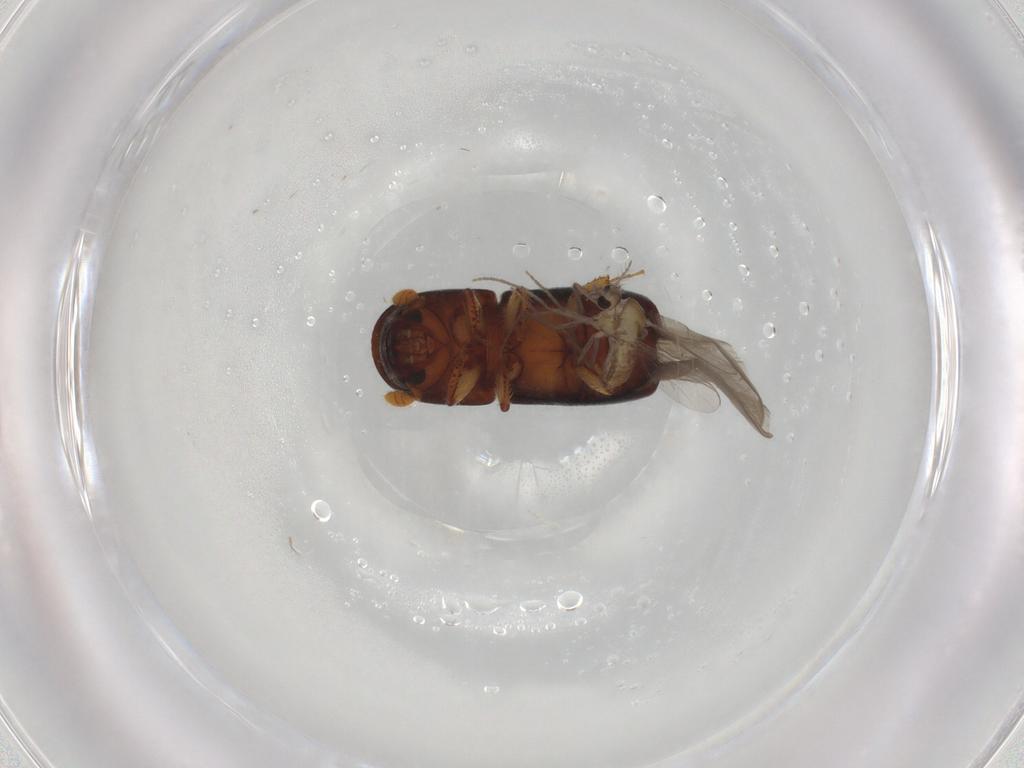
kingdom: Animalia
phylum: Arthropoda
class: Insecta
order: Coleoptera
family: Curculionidae
